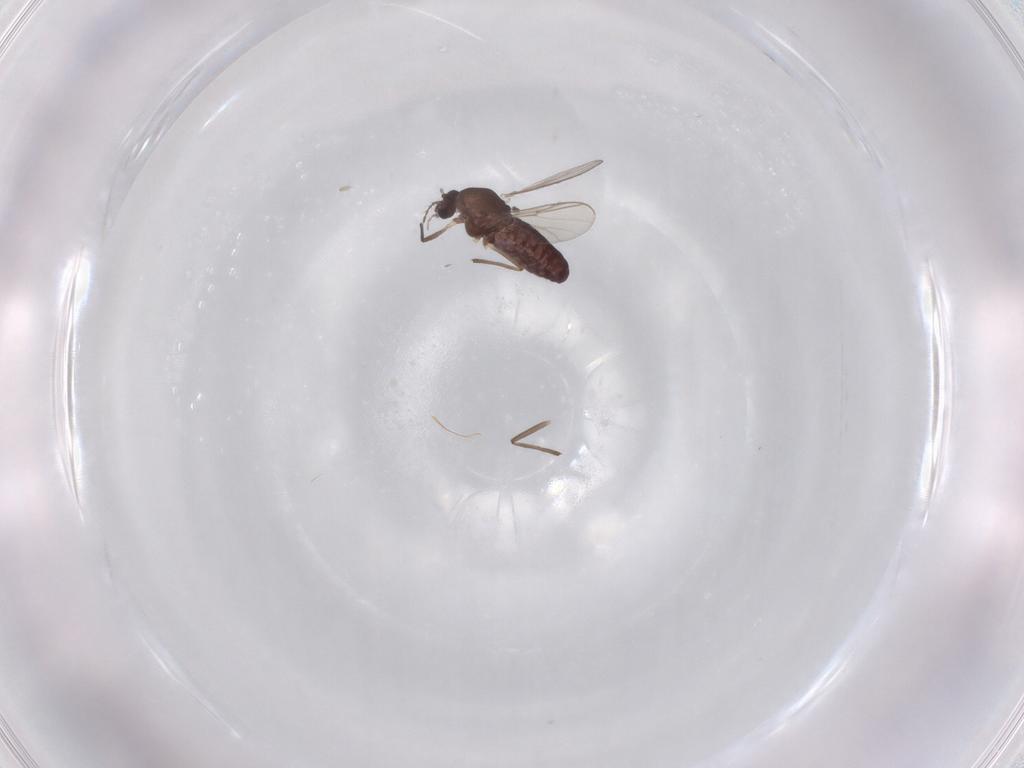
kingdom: Animalia
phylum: Arthropoda
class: Insecta
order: Diptera
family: Chironomidae
